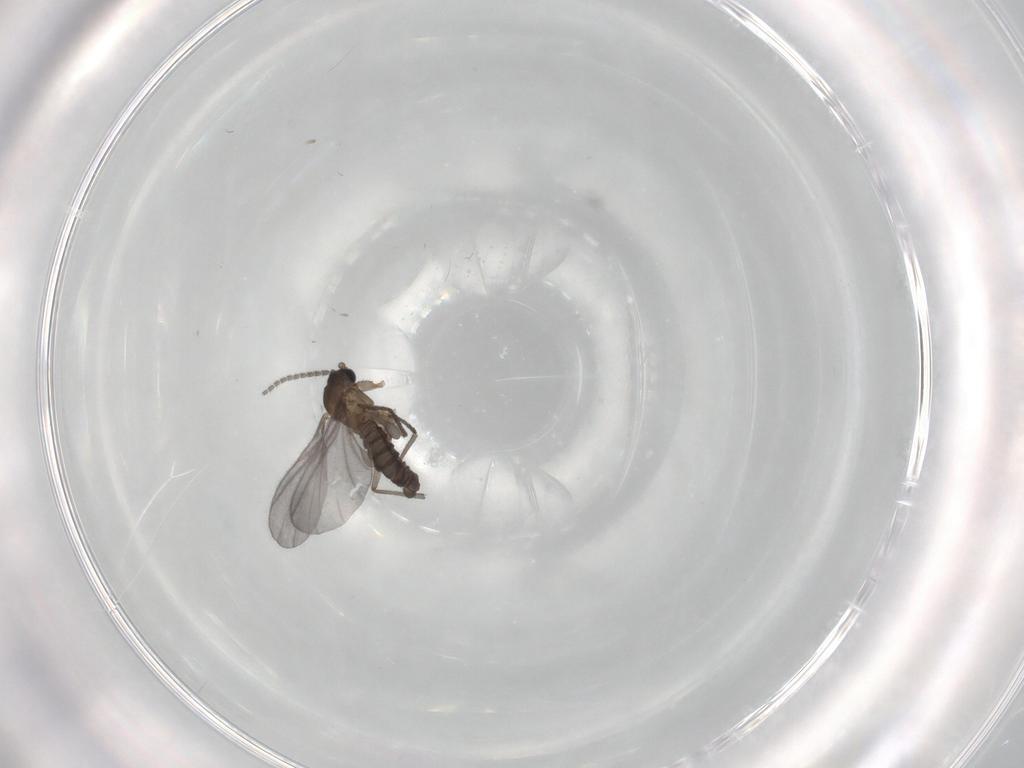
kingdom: Animalia
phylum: Arthropoda
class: Insecta
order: Diptera
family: Sciaridae
